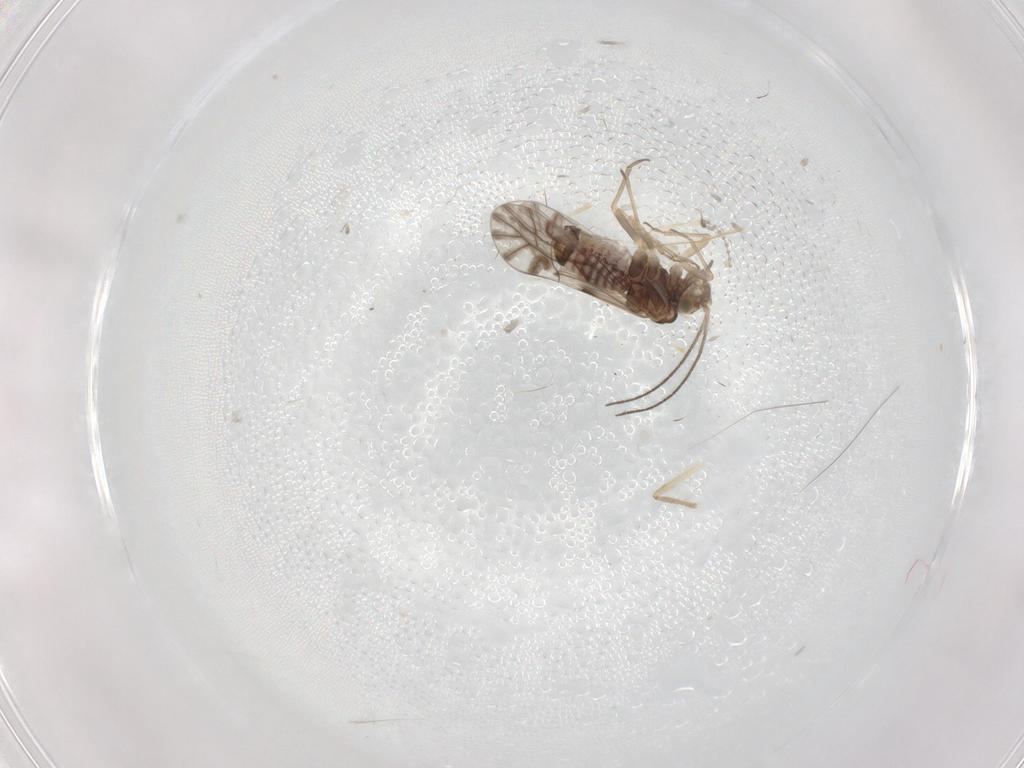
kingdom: Animalia
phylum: Arthropoda
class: Insecta
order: Psocodea
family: Lachesillidae
